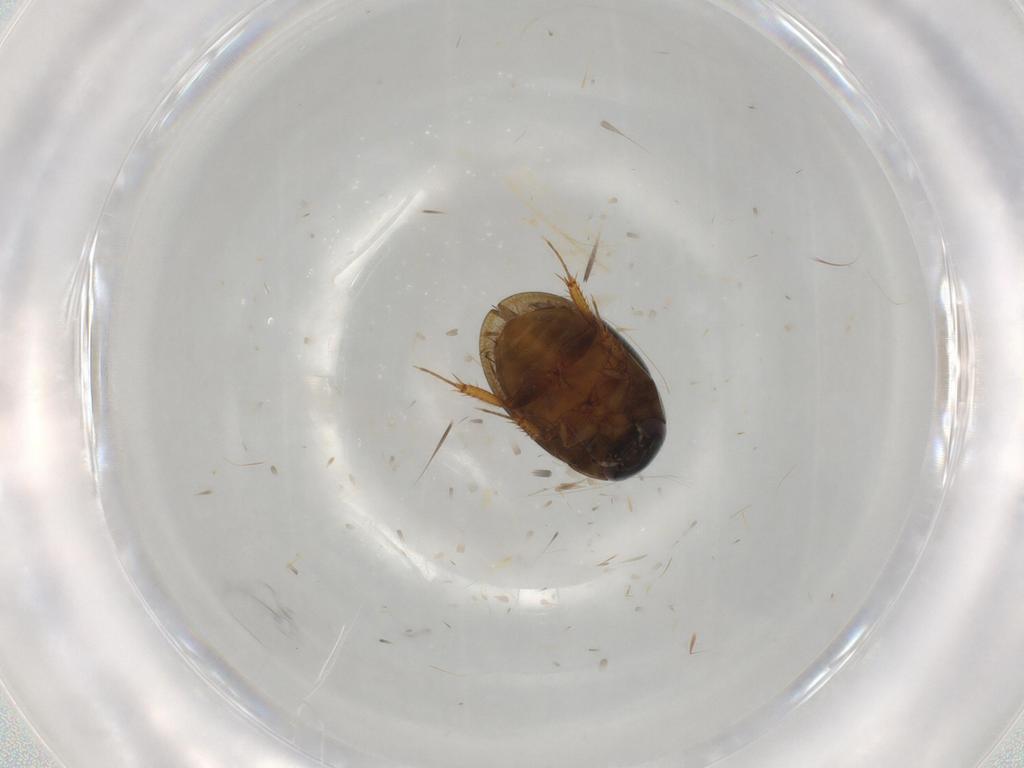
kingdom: Animalia
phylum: Arthropoda
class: Insecta
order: Coleoptera
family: Hydrophilidae
